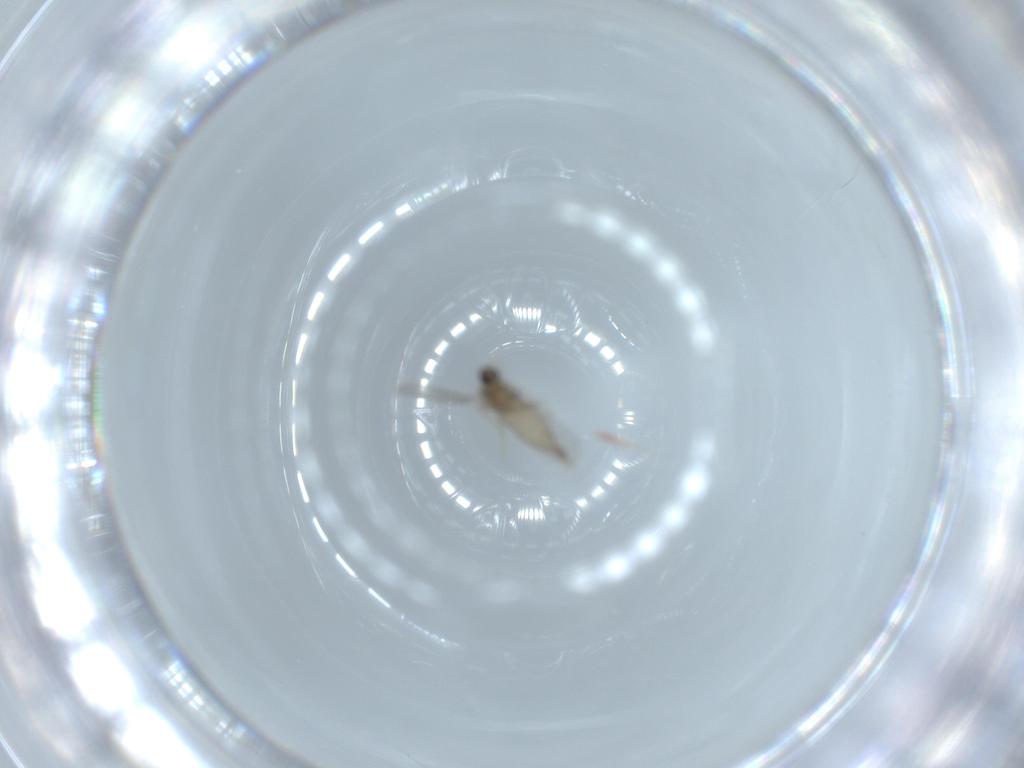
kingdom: Animalia
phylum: Arthropoda
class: Insecta
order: Diptera
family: Cecidomyiidae
